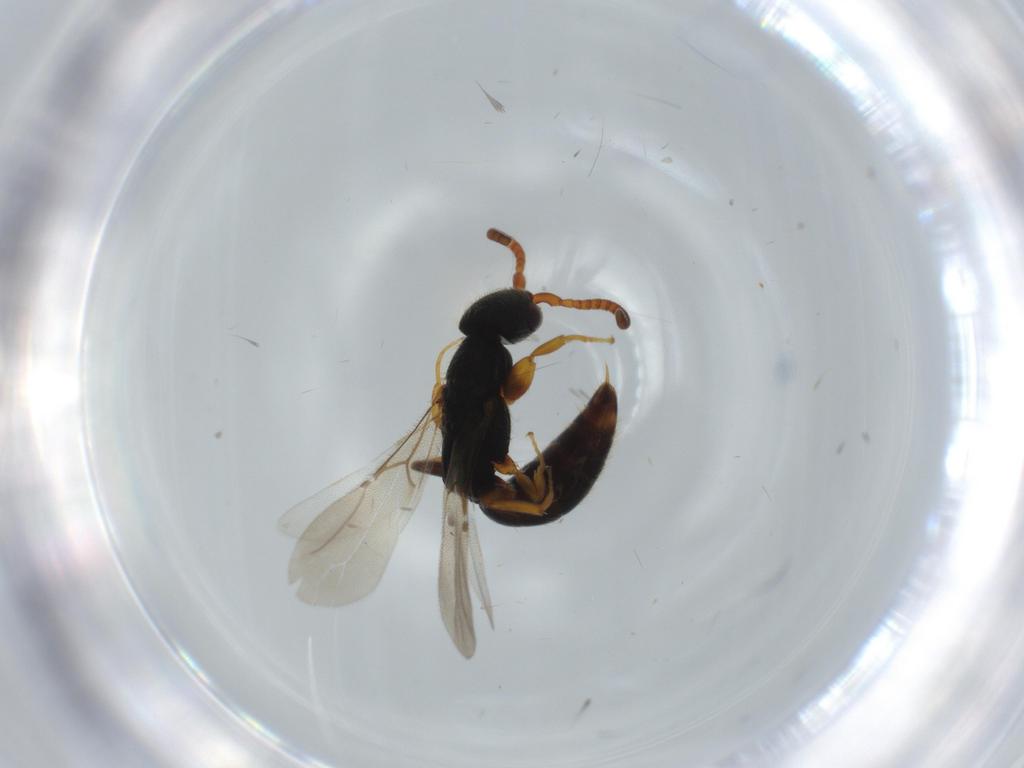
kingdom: Animalia
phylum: Arthropoda
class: Insecta
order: Hymenoptera
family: Bethylidae
